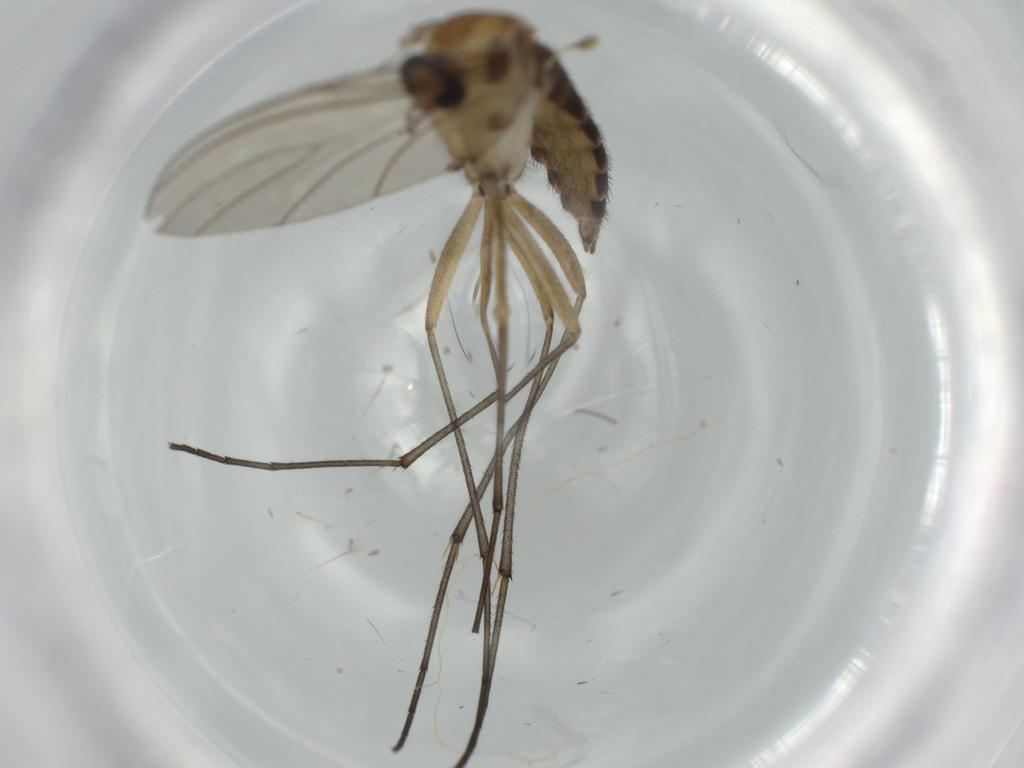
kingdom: Animalia
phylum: Arthropoda
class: Insecta
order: Diptera
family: Sciaridae
